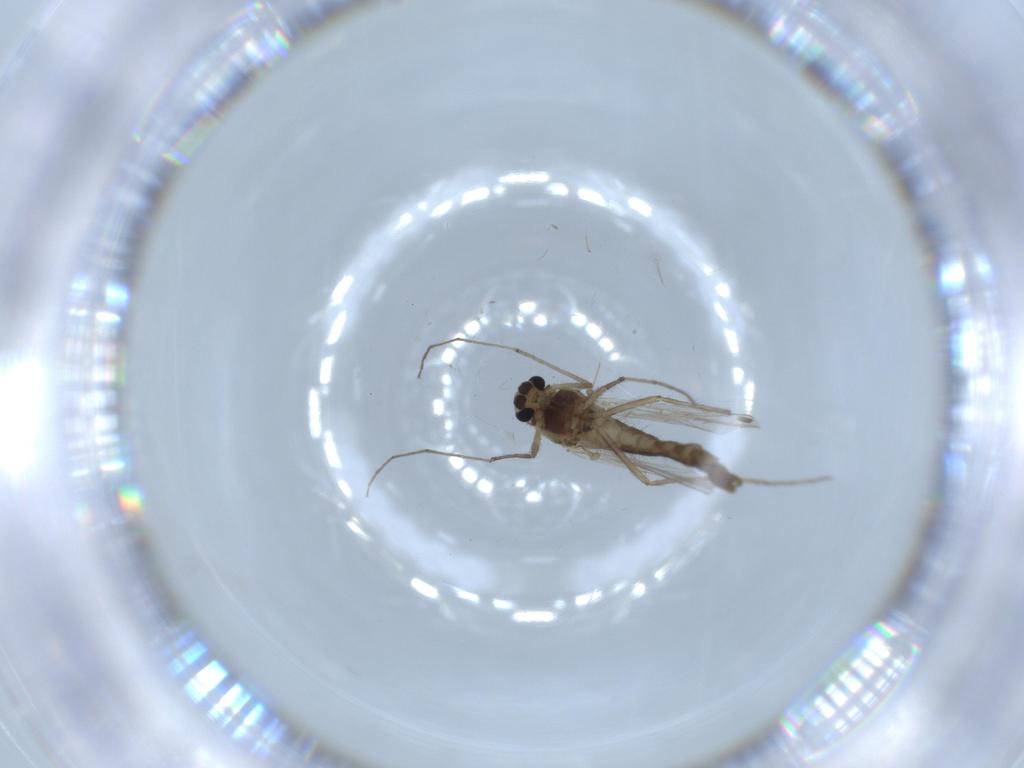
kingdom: Animalia
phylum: Arthropoda
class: Insecta
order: Diptera
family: Chironomidae
